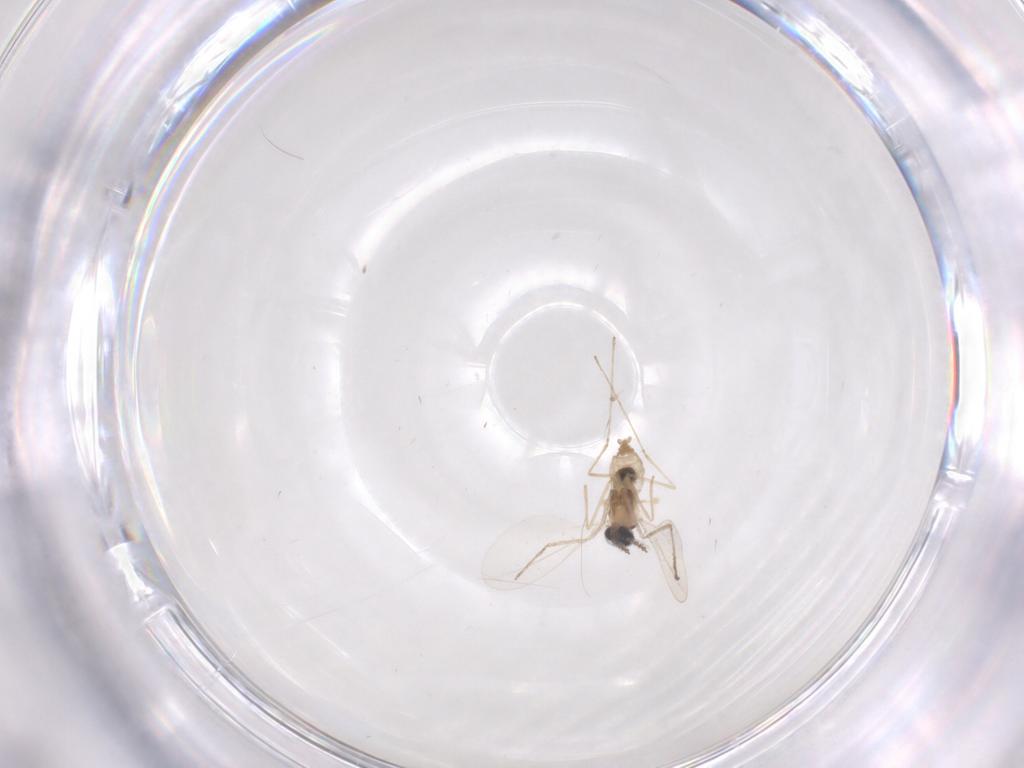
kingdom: Animalia
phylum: Arthropoda
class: Insecta
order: Diptera
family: Cecidomyiidae
